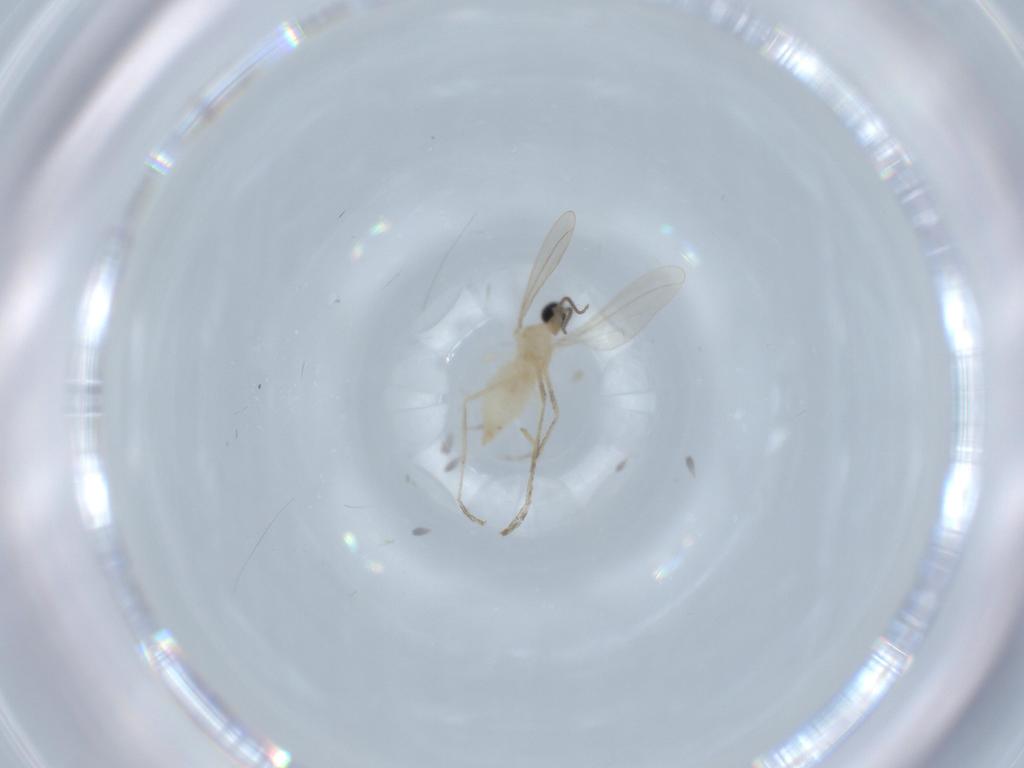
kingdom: Animalia
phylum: Arthropoda
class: Insecta
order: Diptera
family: Cecidomyiidae
